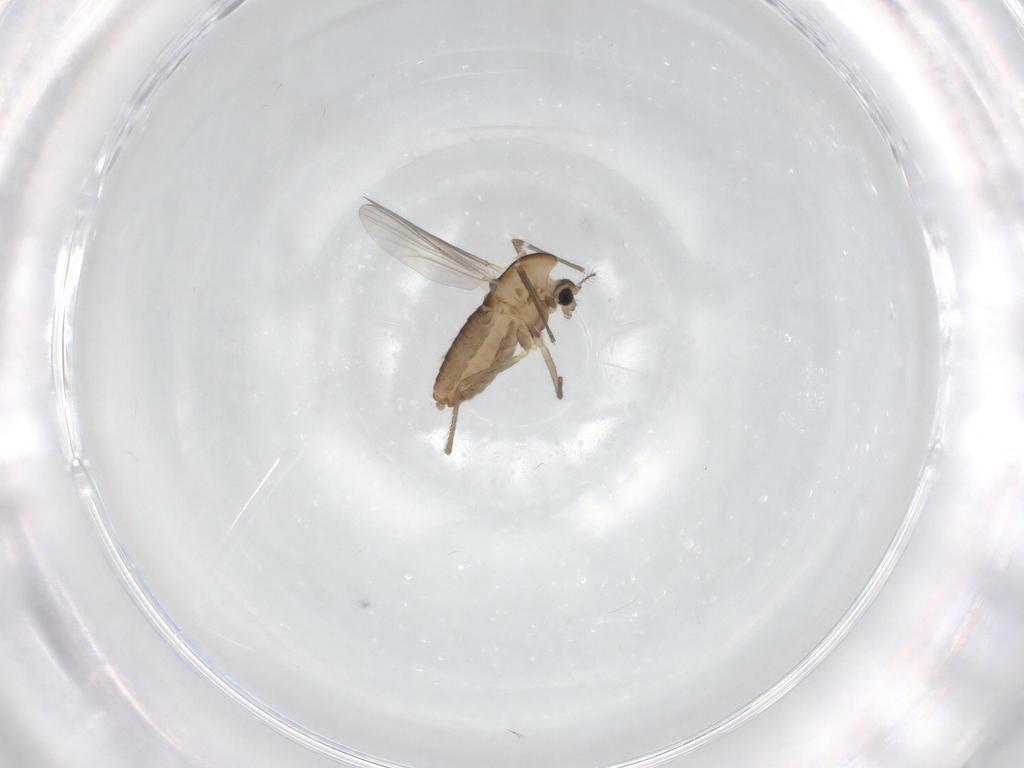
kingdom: Animalia
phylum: Arthropoda
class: Insecta
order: Diptera
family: Chironomidae
